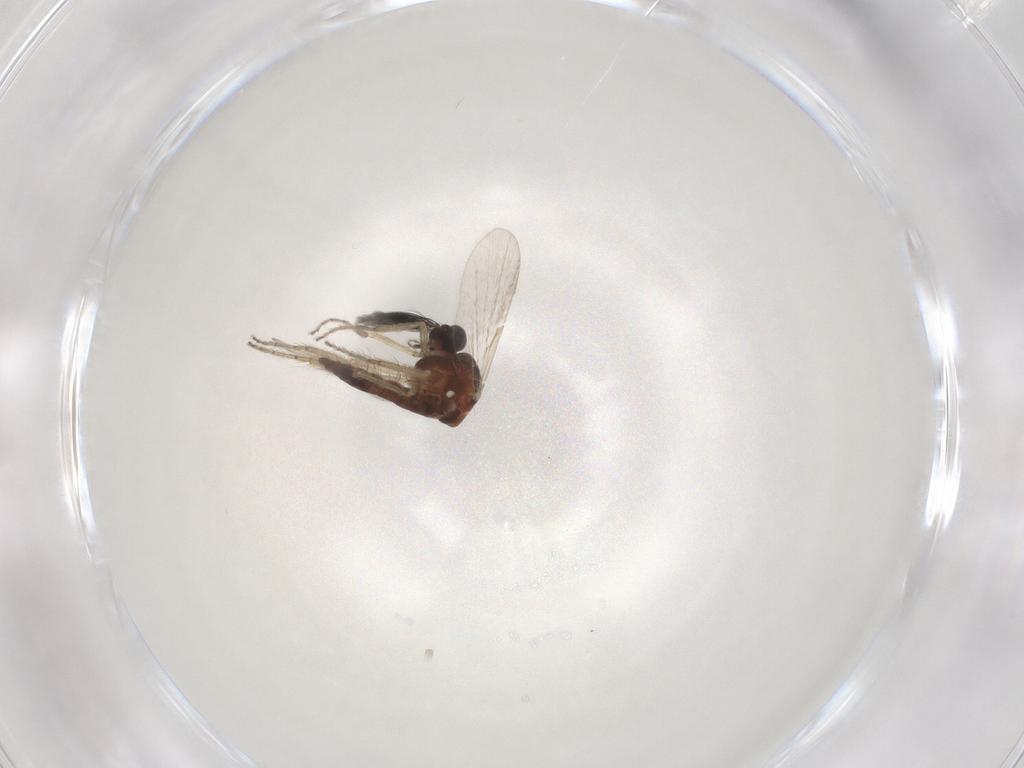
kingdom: Animalia
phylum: Arthropoda
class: Insecta
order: Diptera
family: Ceratopogonidae
